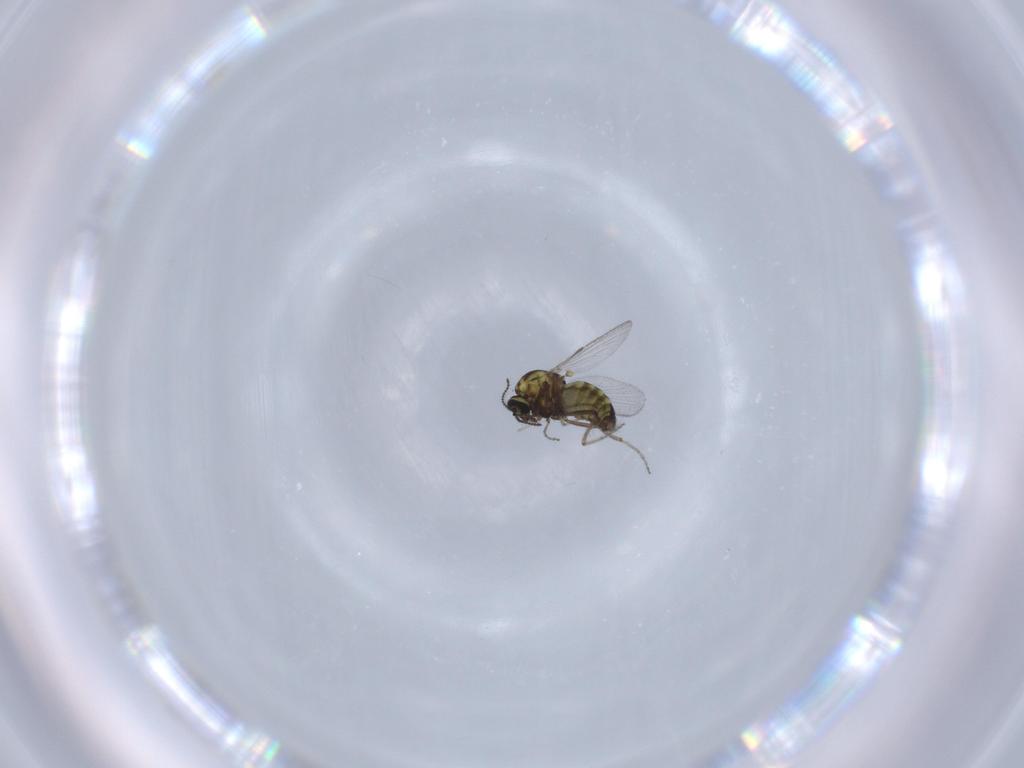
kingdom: Animalia
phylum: Arthropoda
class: Insecta
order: Diptera
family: Ceratopogonidae
